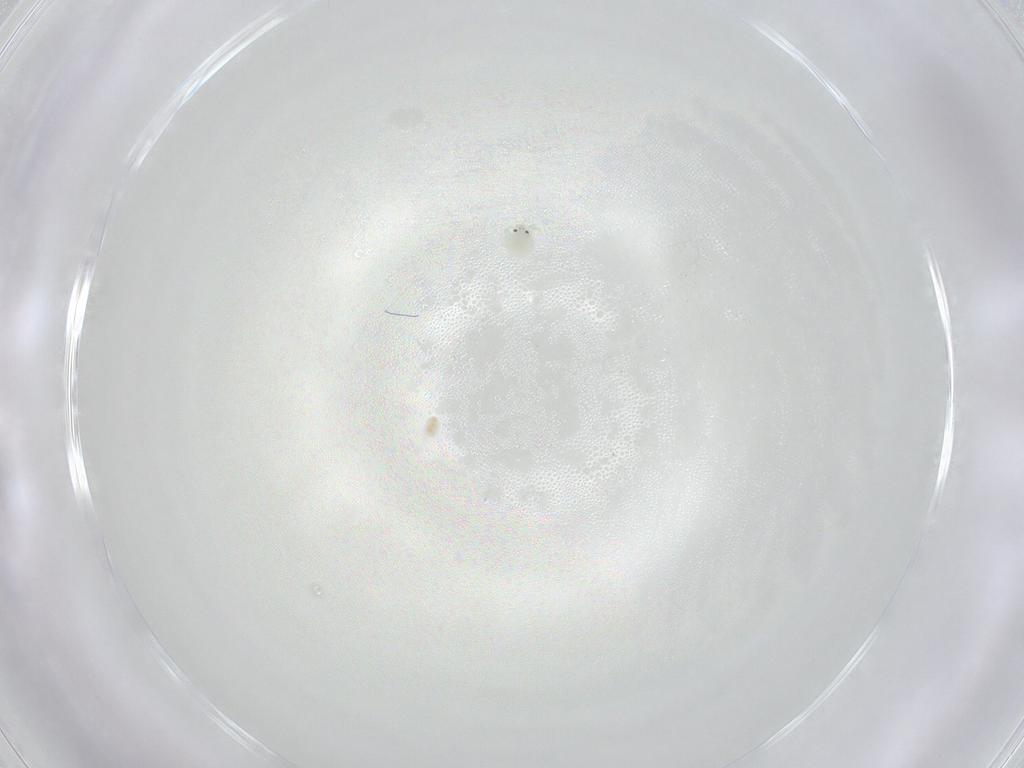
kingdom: Animalia
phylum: Arthropoda
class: Arachnida
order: Trombidiformes
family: Arrenuridae
